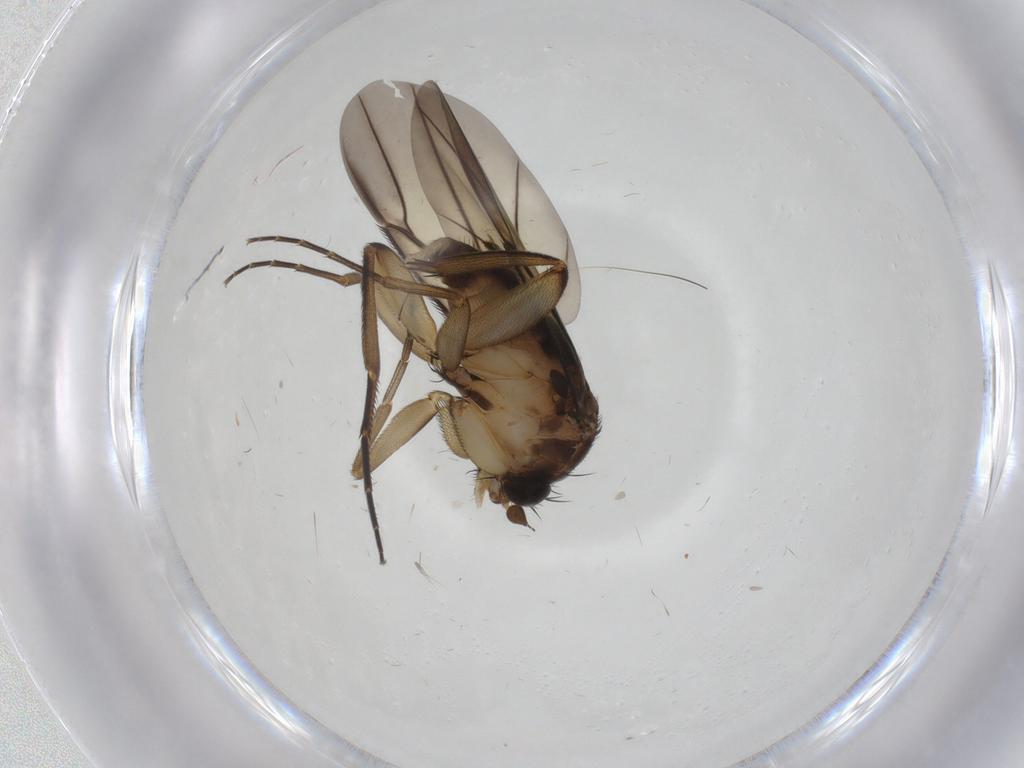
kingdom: Animalia
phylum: Arthropoda
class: Insecta
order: Diptera
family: Phoridae
